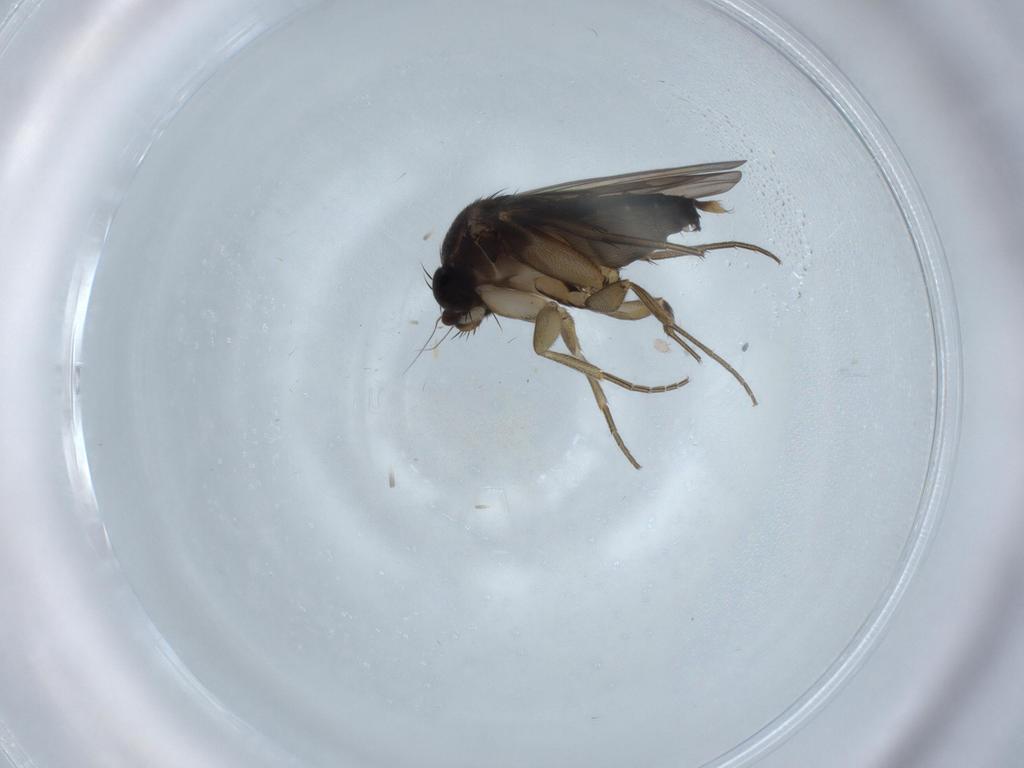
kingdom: Animalia
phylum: Arthropoda
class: Insecta
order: Diptera
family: Phoridae
